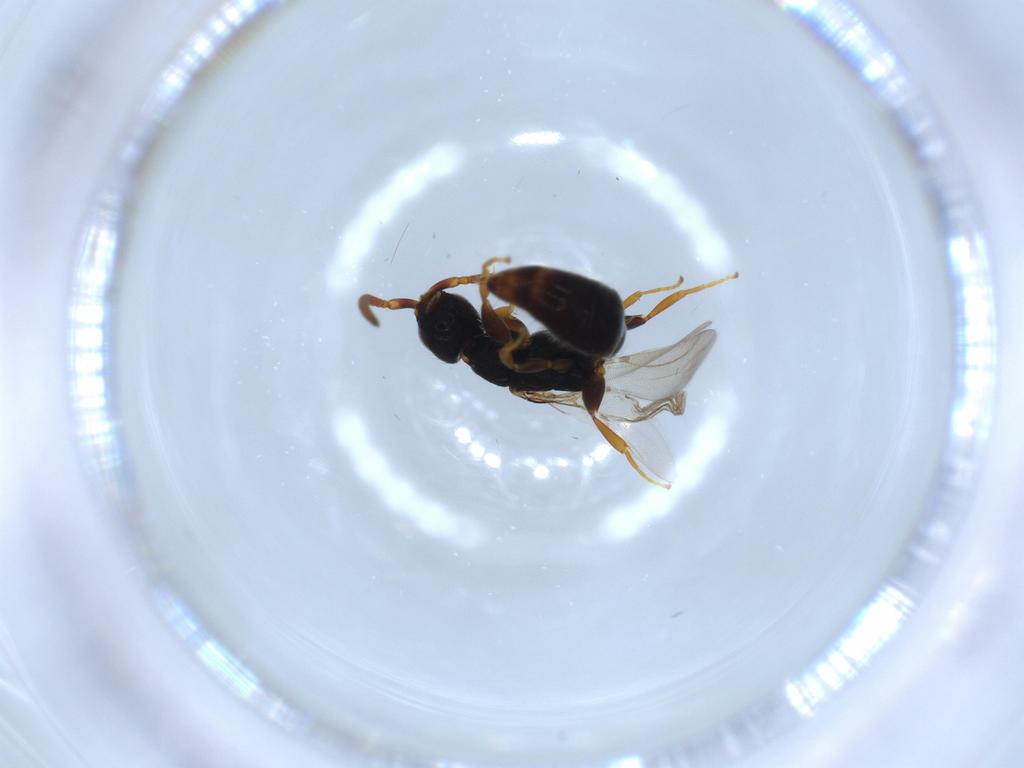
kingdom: Animalia
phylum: Arthropoda
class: Insecta
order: Hymenoptera
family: Bethylidae
